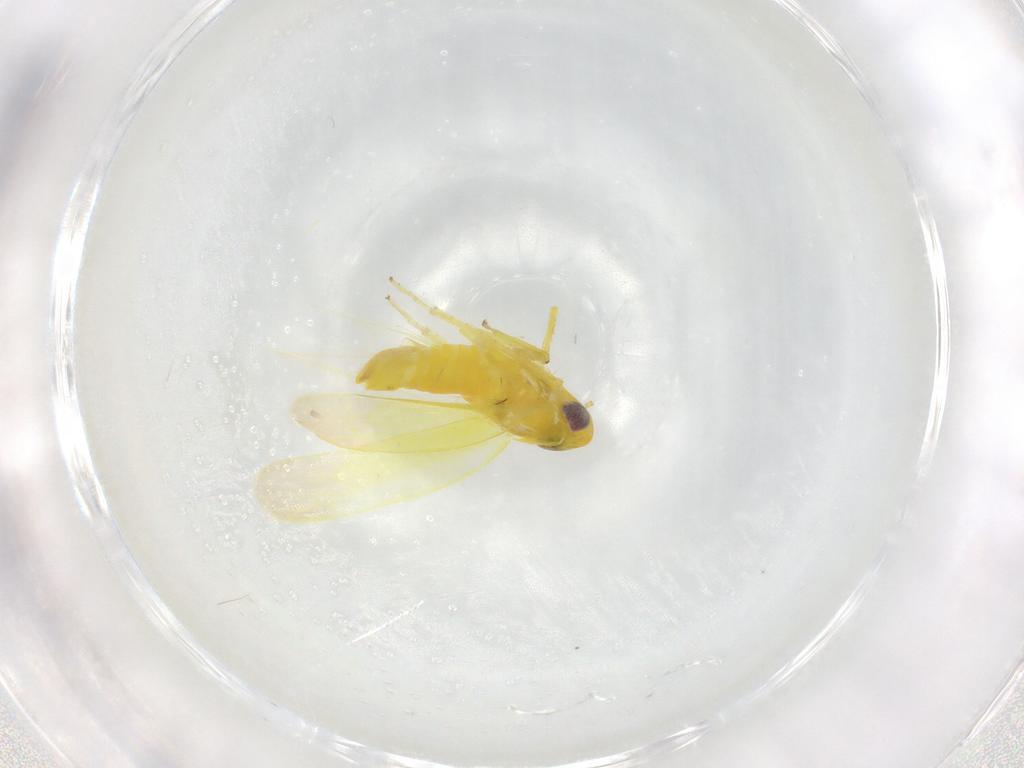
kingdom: Animalia
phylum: Arthropoda
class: Insecta
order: Hemiptera
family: Cicadellidae
